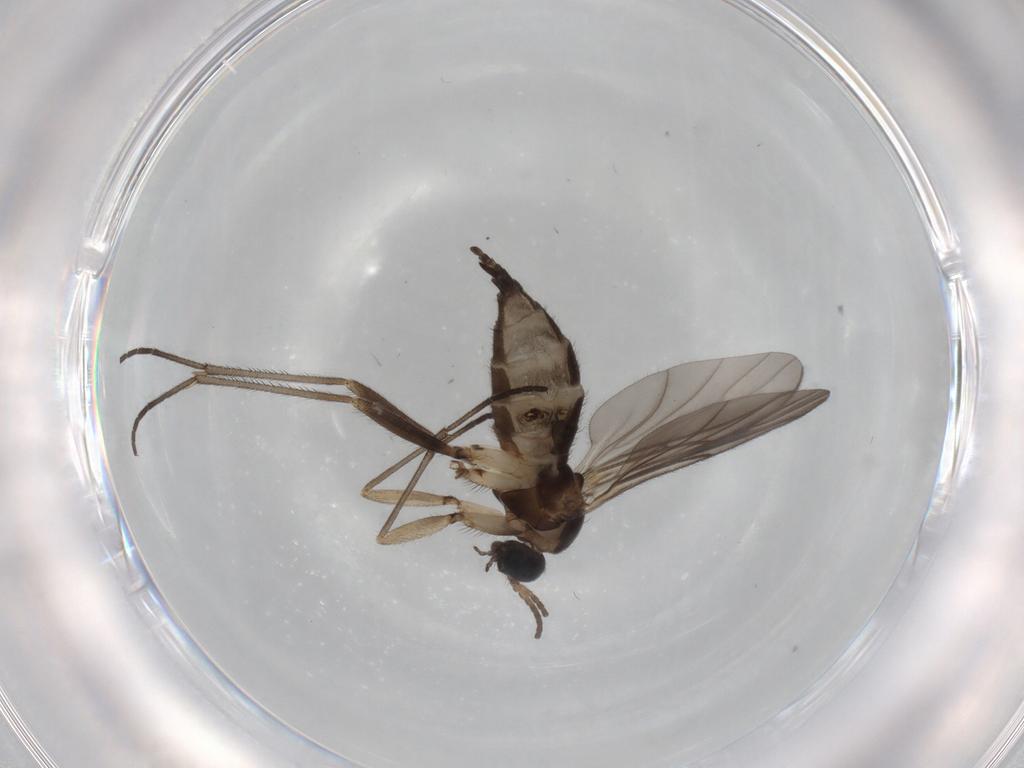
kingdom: Animalia
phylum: Arthropoda
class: Insecta
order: Diptera
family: Sciaridae
